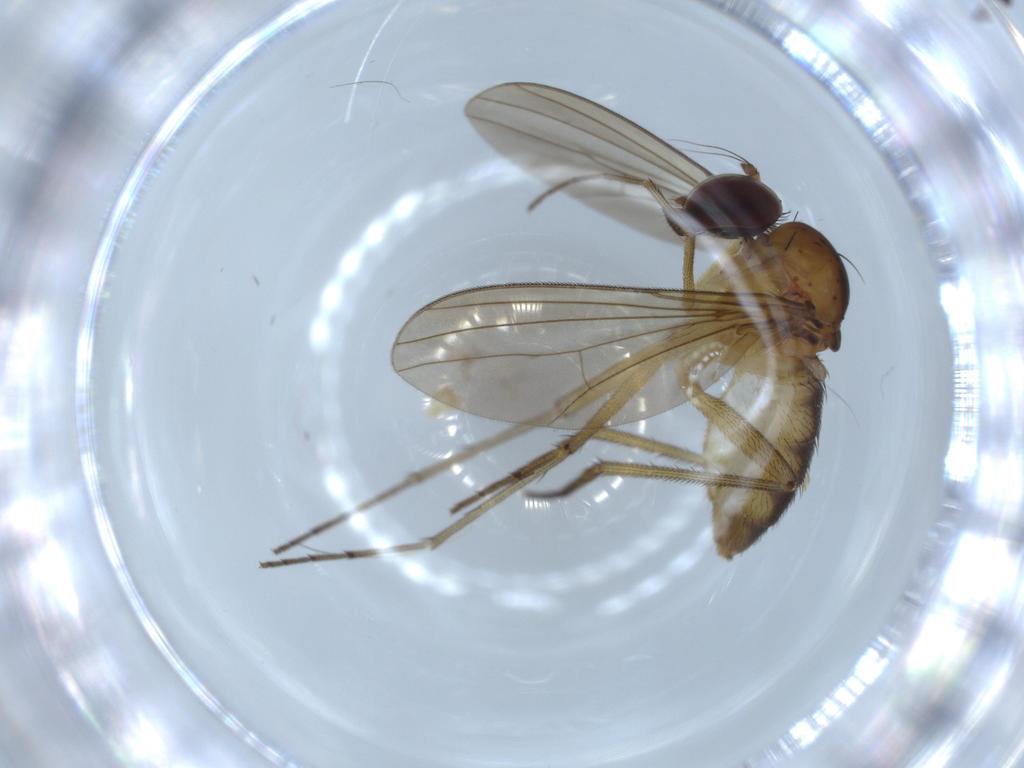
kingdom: Animalia
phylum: Arthropoda
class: Insecta
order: Diptera
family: Dolichopodidae
